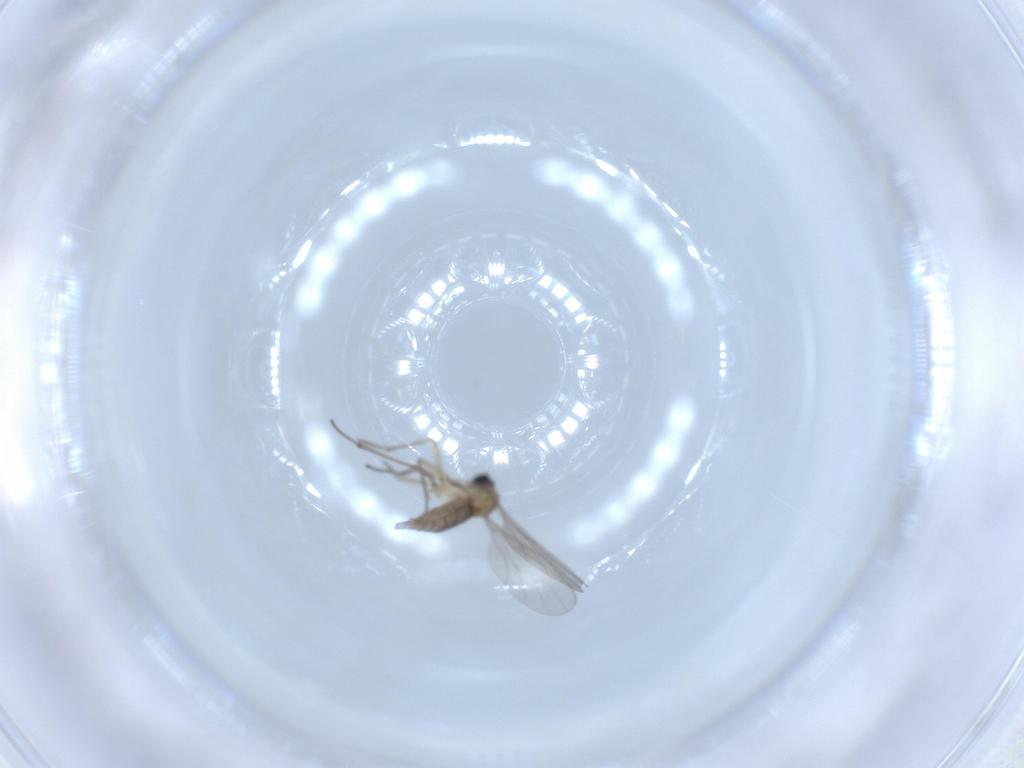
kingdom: Animalia
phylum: Arthropoda
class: Insecta
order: Diptera
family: Sciaridae
